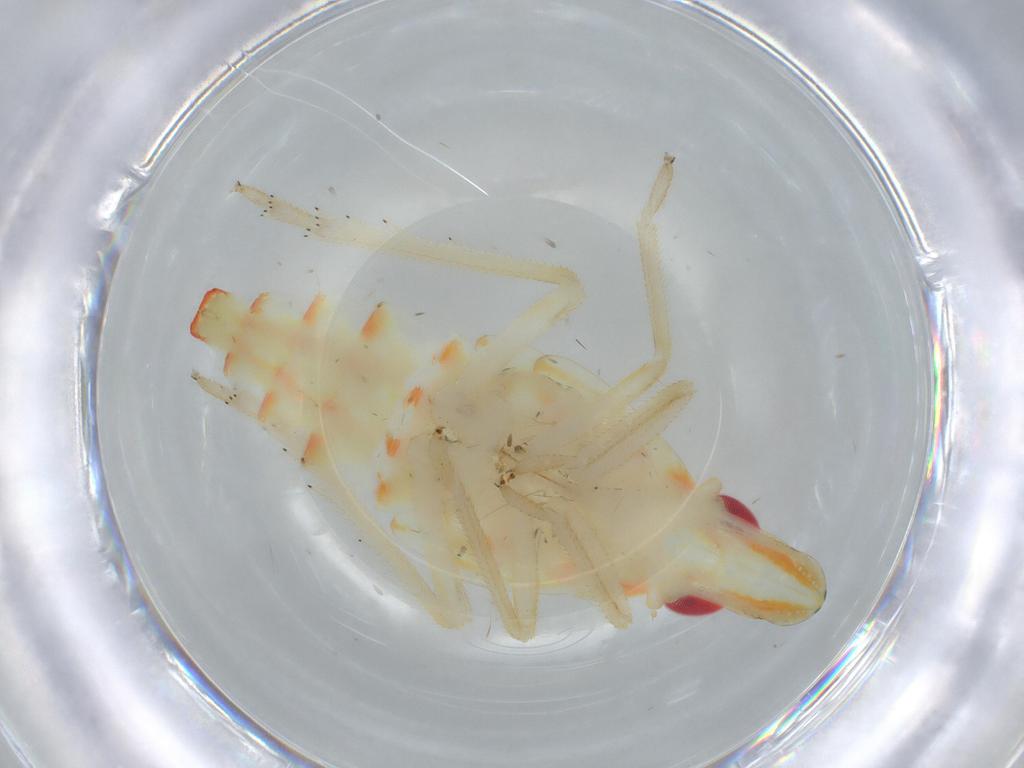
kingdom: Animalia
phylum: Arthropoda
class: Insecta
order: Hemiptera
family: Tropiduchidae
